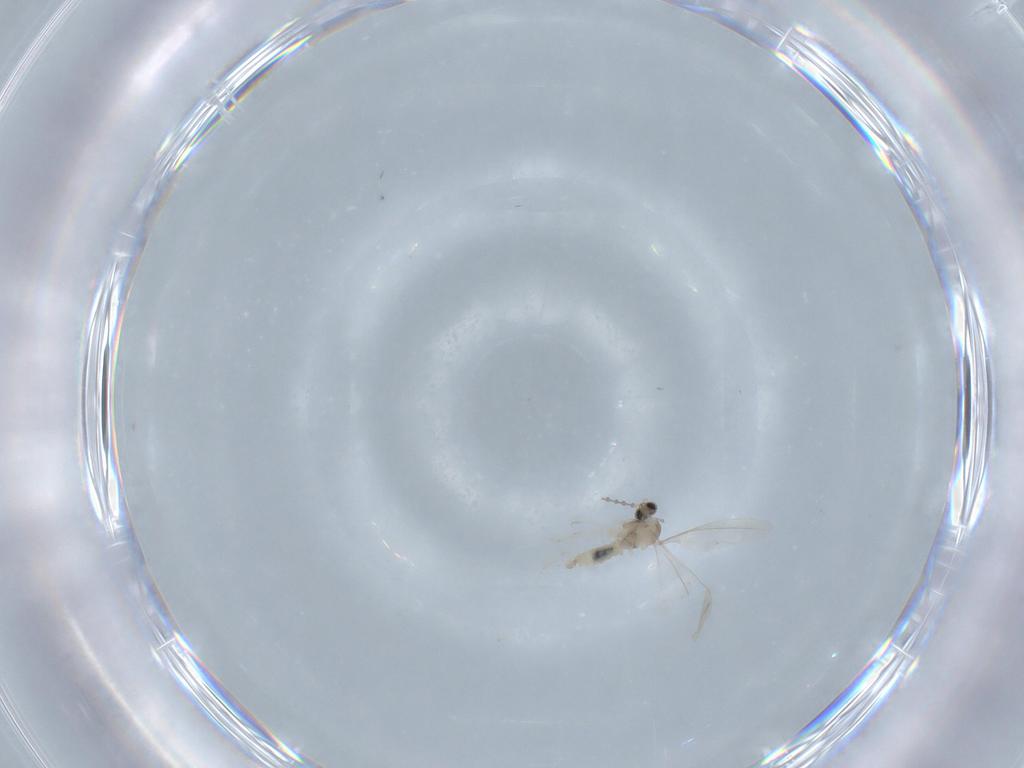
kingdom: Animalia
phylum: Arthropoda
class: Insecta
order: Diptera
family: Cecidomyiidae
